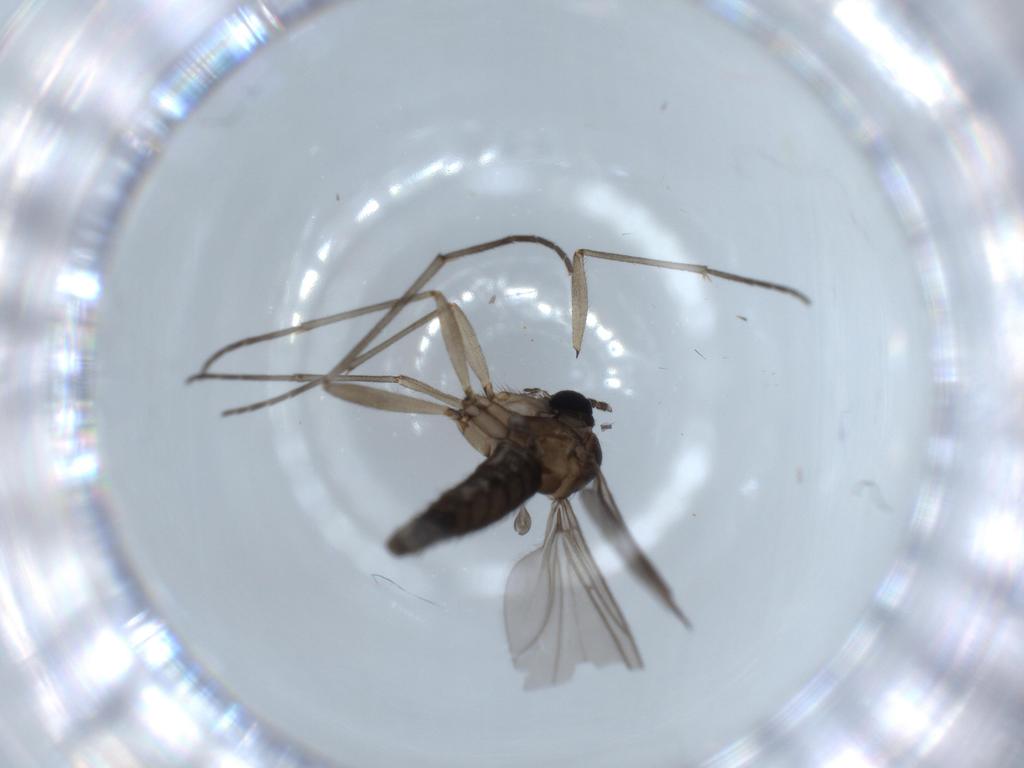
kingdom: Animalia
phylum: Arthropoda
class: Insecta
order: Diptera
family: Sciaridae
